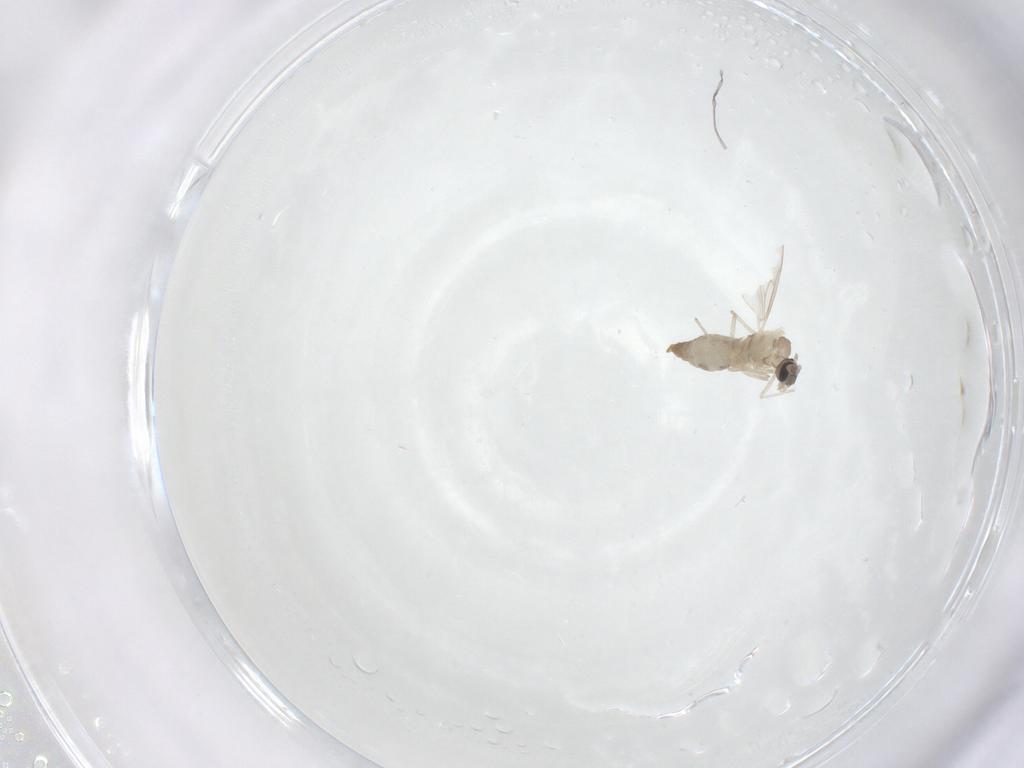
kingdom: Animalia
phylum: Arthropoda
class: Insecta
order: Diptera
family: Cecidomyiidae
